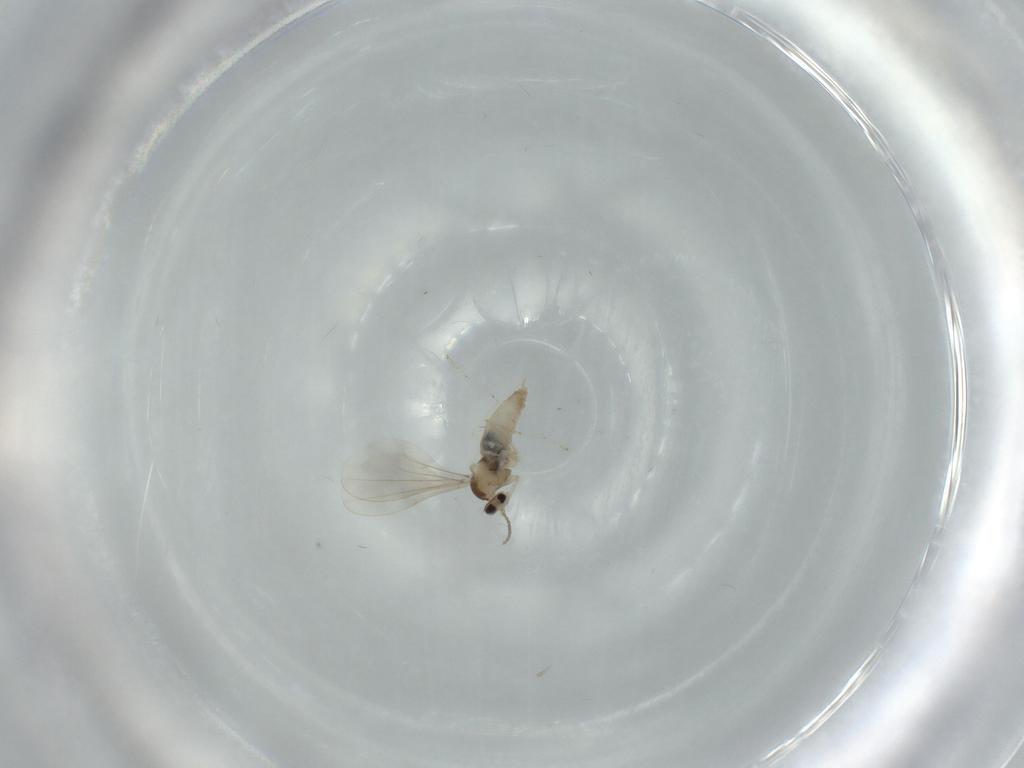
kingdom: Animalia
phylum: Arthropoda
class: Insecta
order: Diptera
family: Cecidomyiidae
